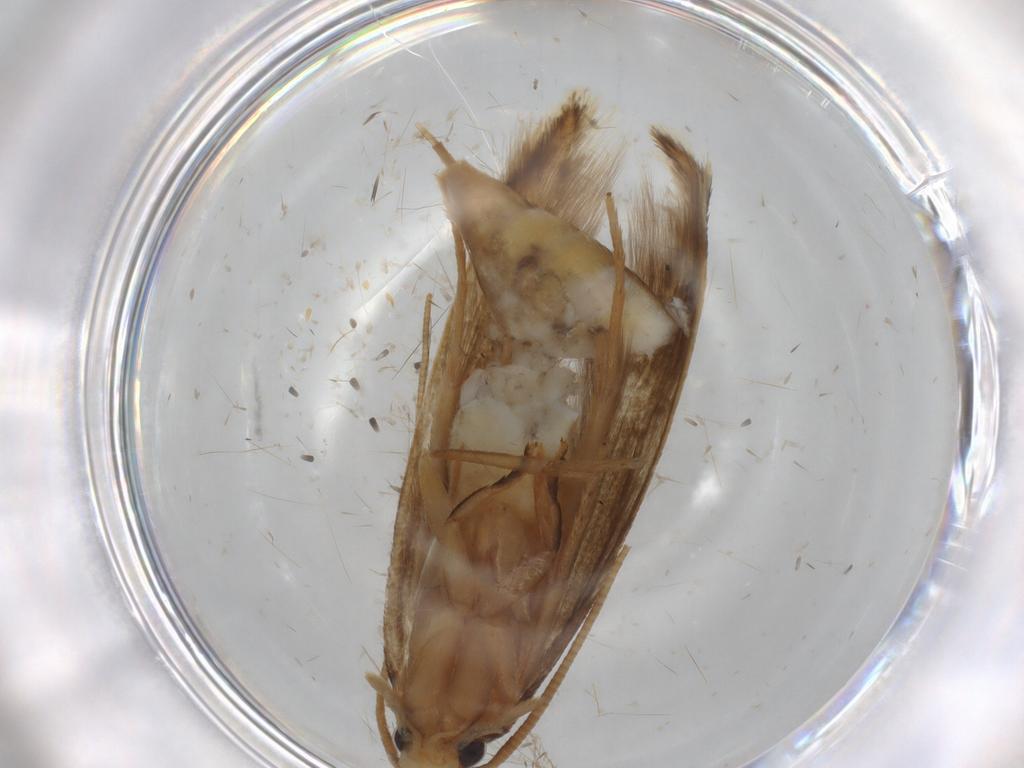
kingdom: Animalia
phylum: Arthropoda
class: Insecta
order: Lepidoptera
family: Tineidae
